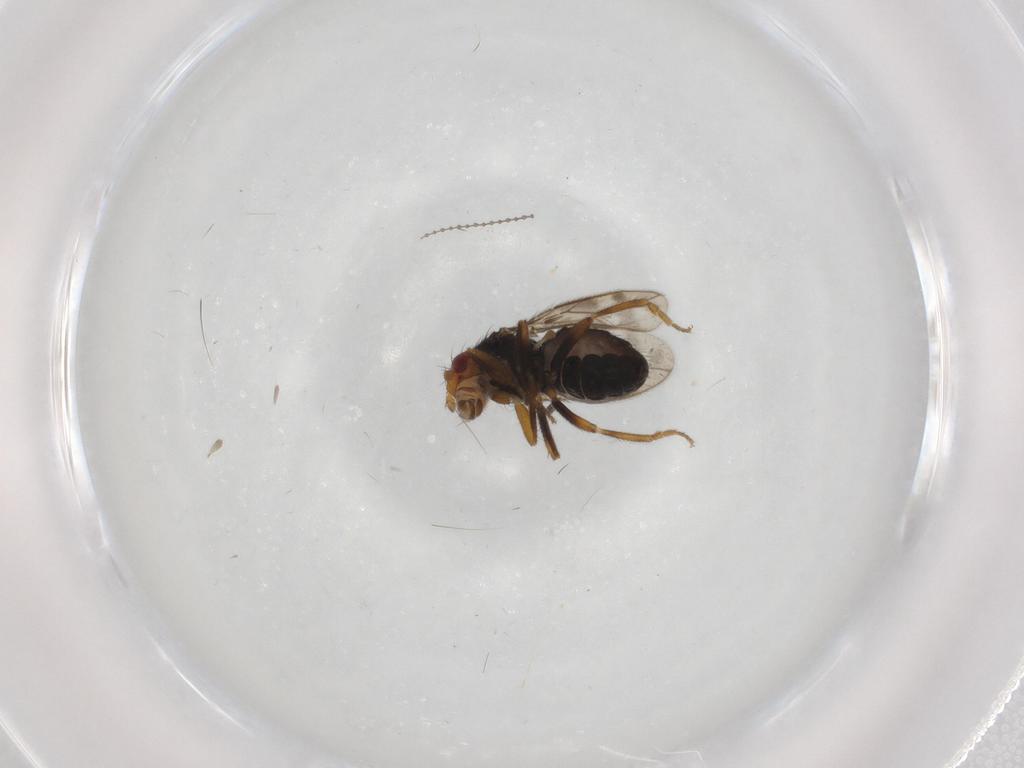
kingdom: Animalia
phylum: Arthropoda
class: Insecta
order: Diptera
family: Sphaeroceridae
